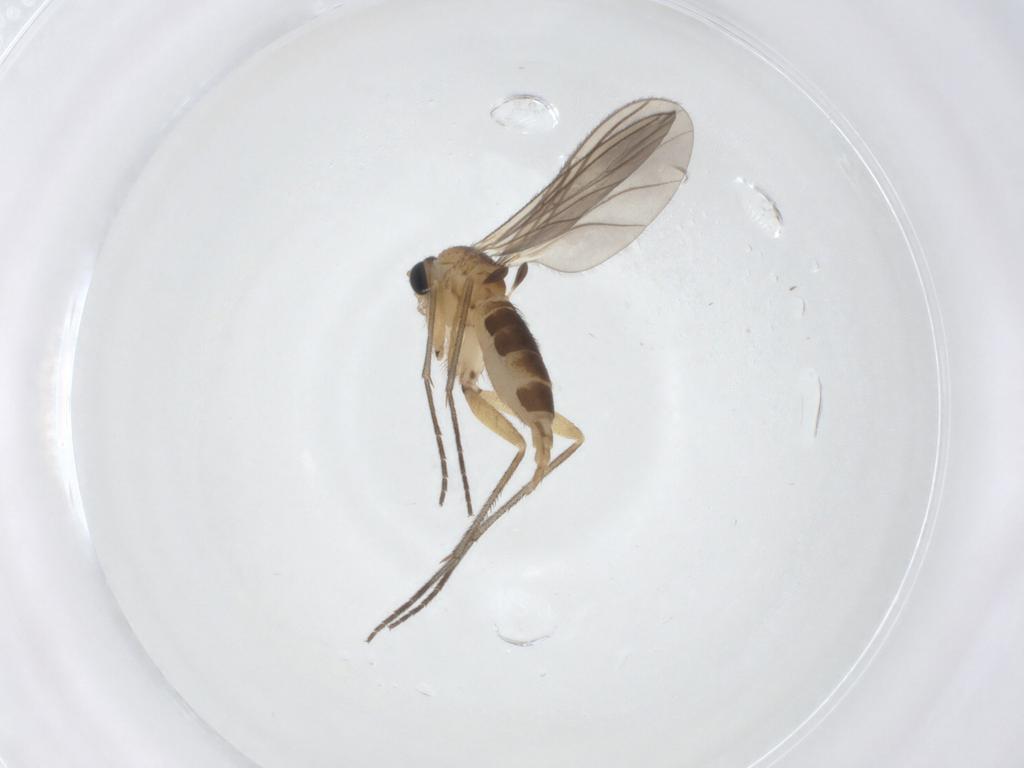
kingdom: Animalia
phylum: Arthropoda
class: Insecta
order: Diptera
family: Sciaridae
